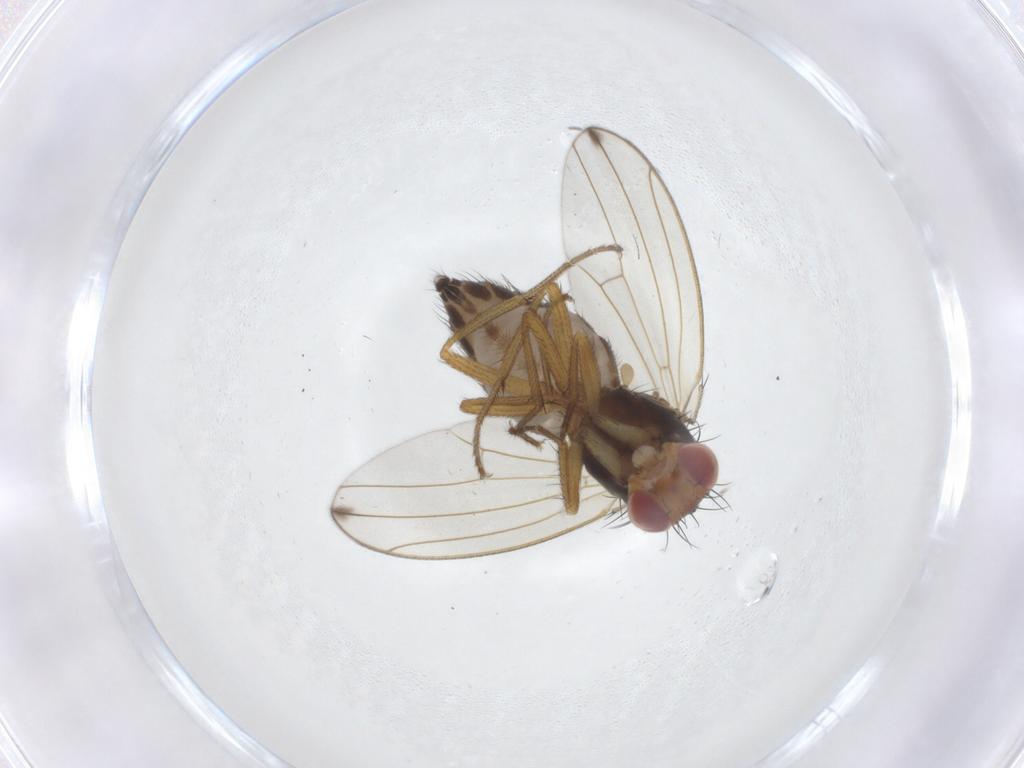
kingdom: Animalia
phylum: Arthropoda
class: Insecta
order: Diptera
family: Drosophilidae
